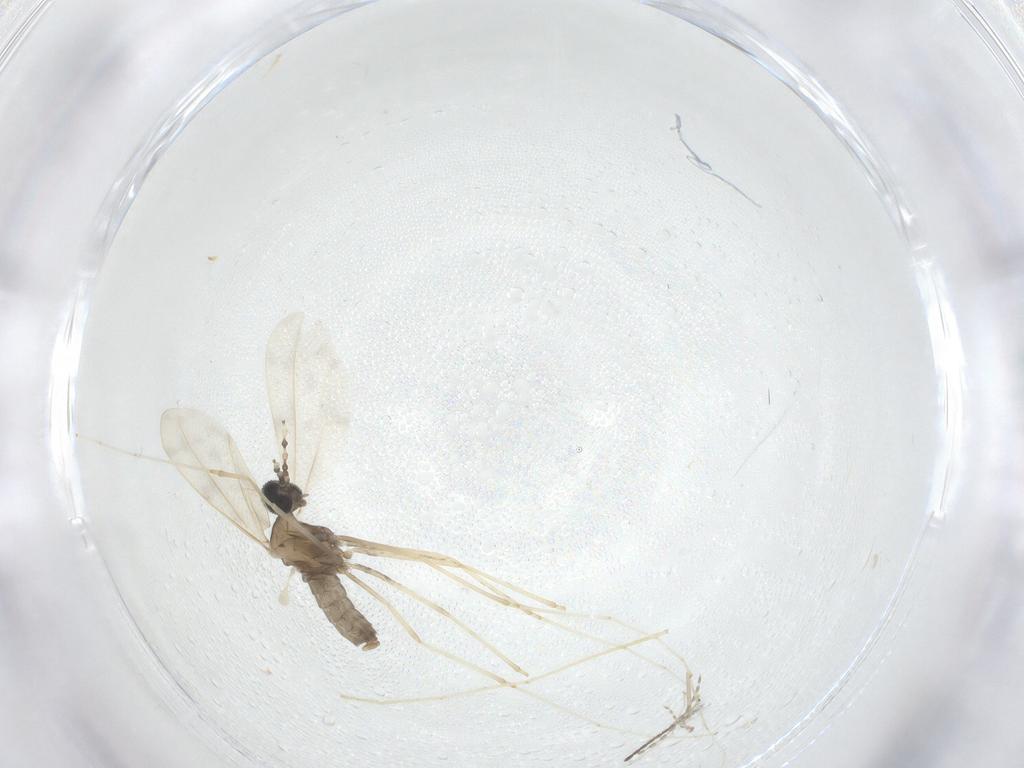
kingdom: Animalia
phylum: Arthropoda
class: Insecta
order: Diptera
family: Cecidomyiidae
